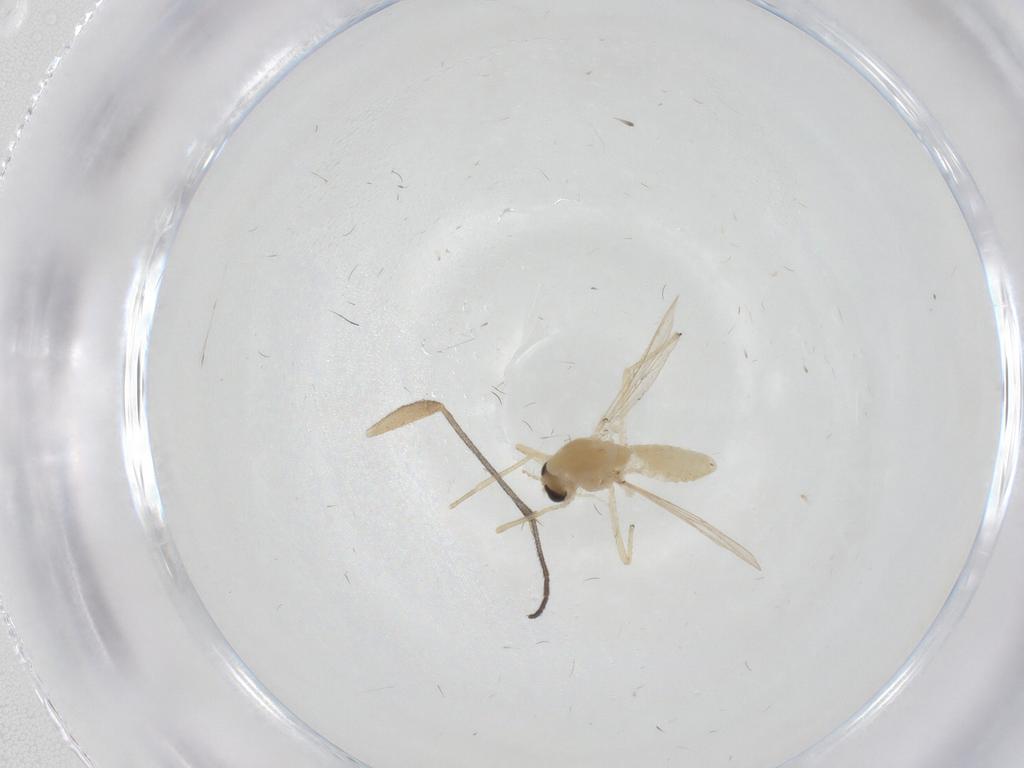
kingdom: Animalia
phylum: Arthropoda
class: Insecta
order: Diptera
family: Chironomidae
